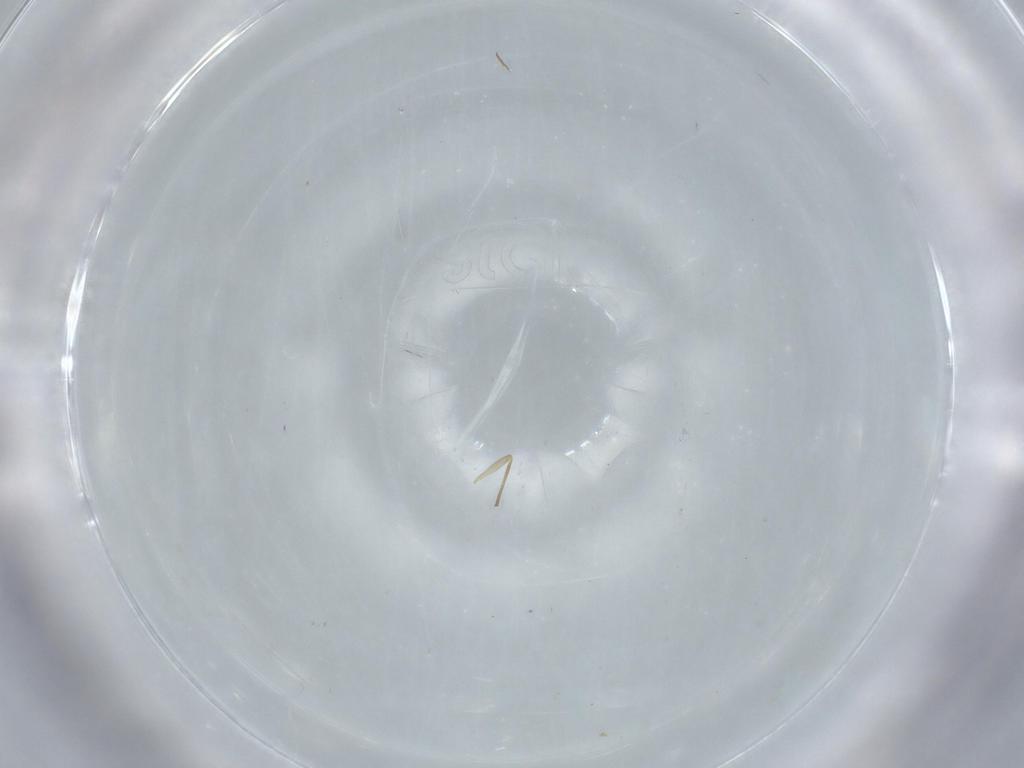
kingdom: Animalia
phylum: Arthropoda
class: Insecta
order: Diptera
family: Chironomidae
